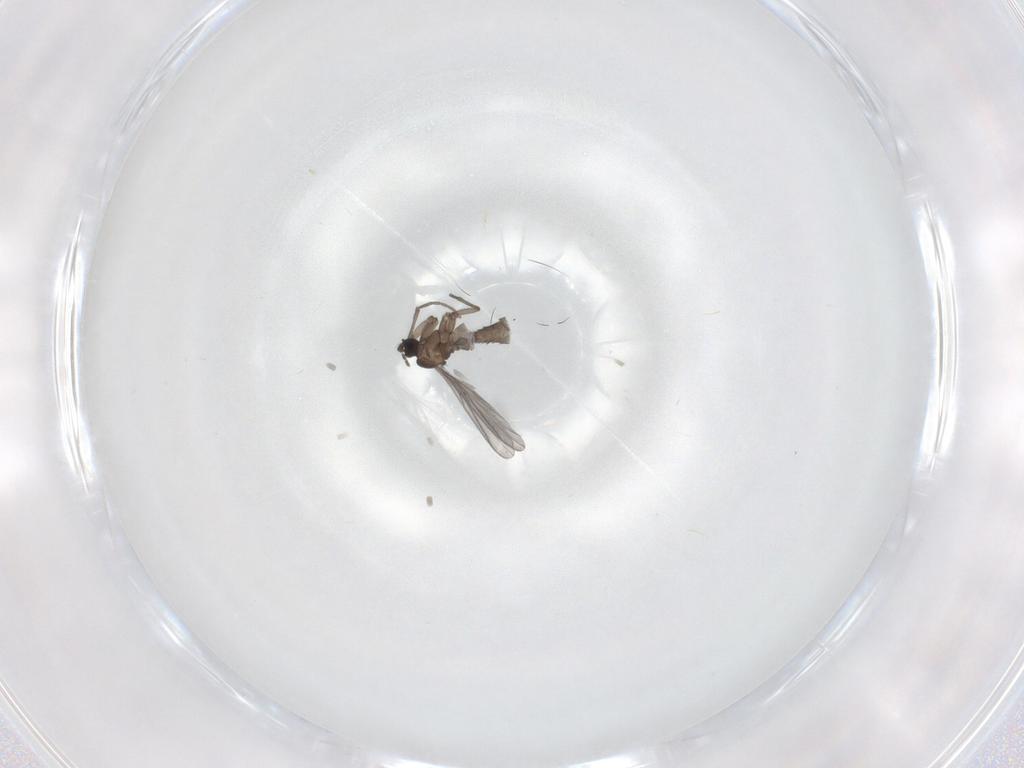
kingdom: Animalia
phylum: Arthropoda
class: Insecta
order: Diptera
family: Sciaridae
